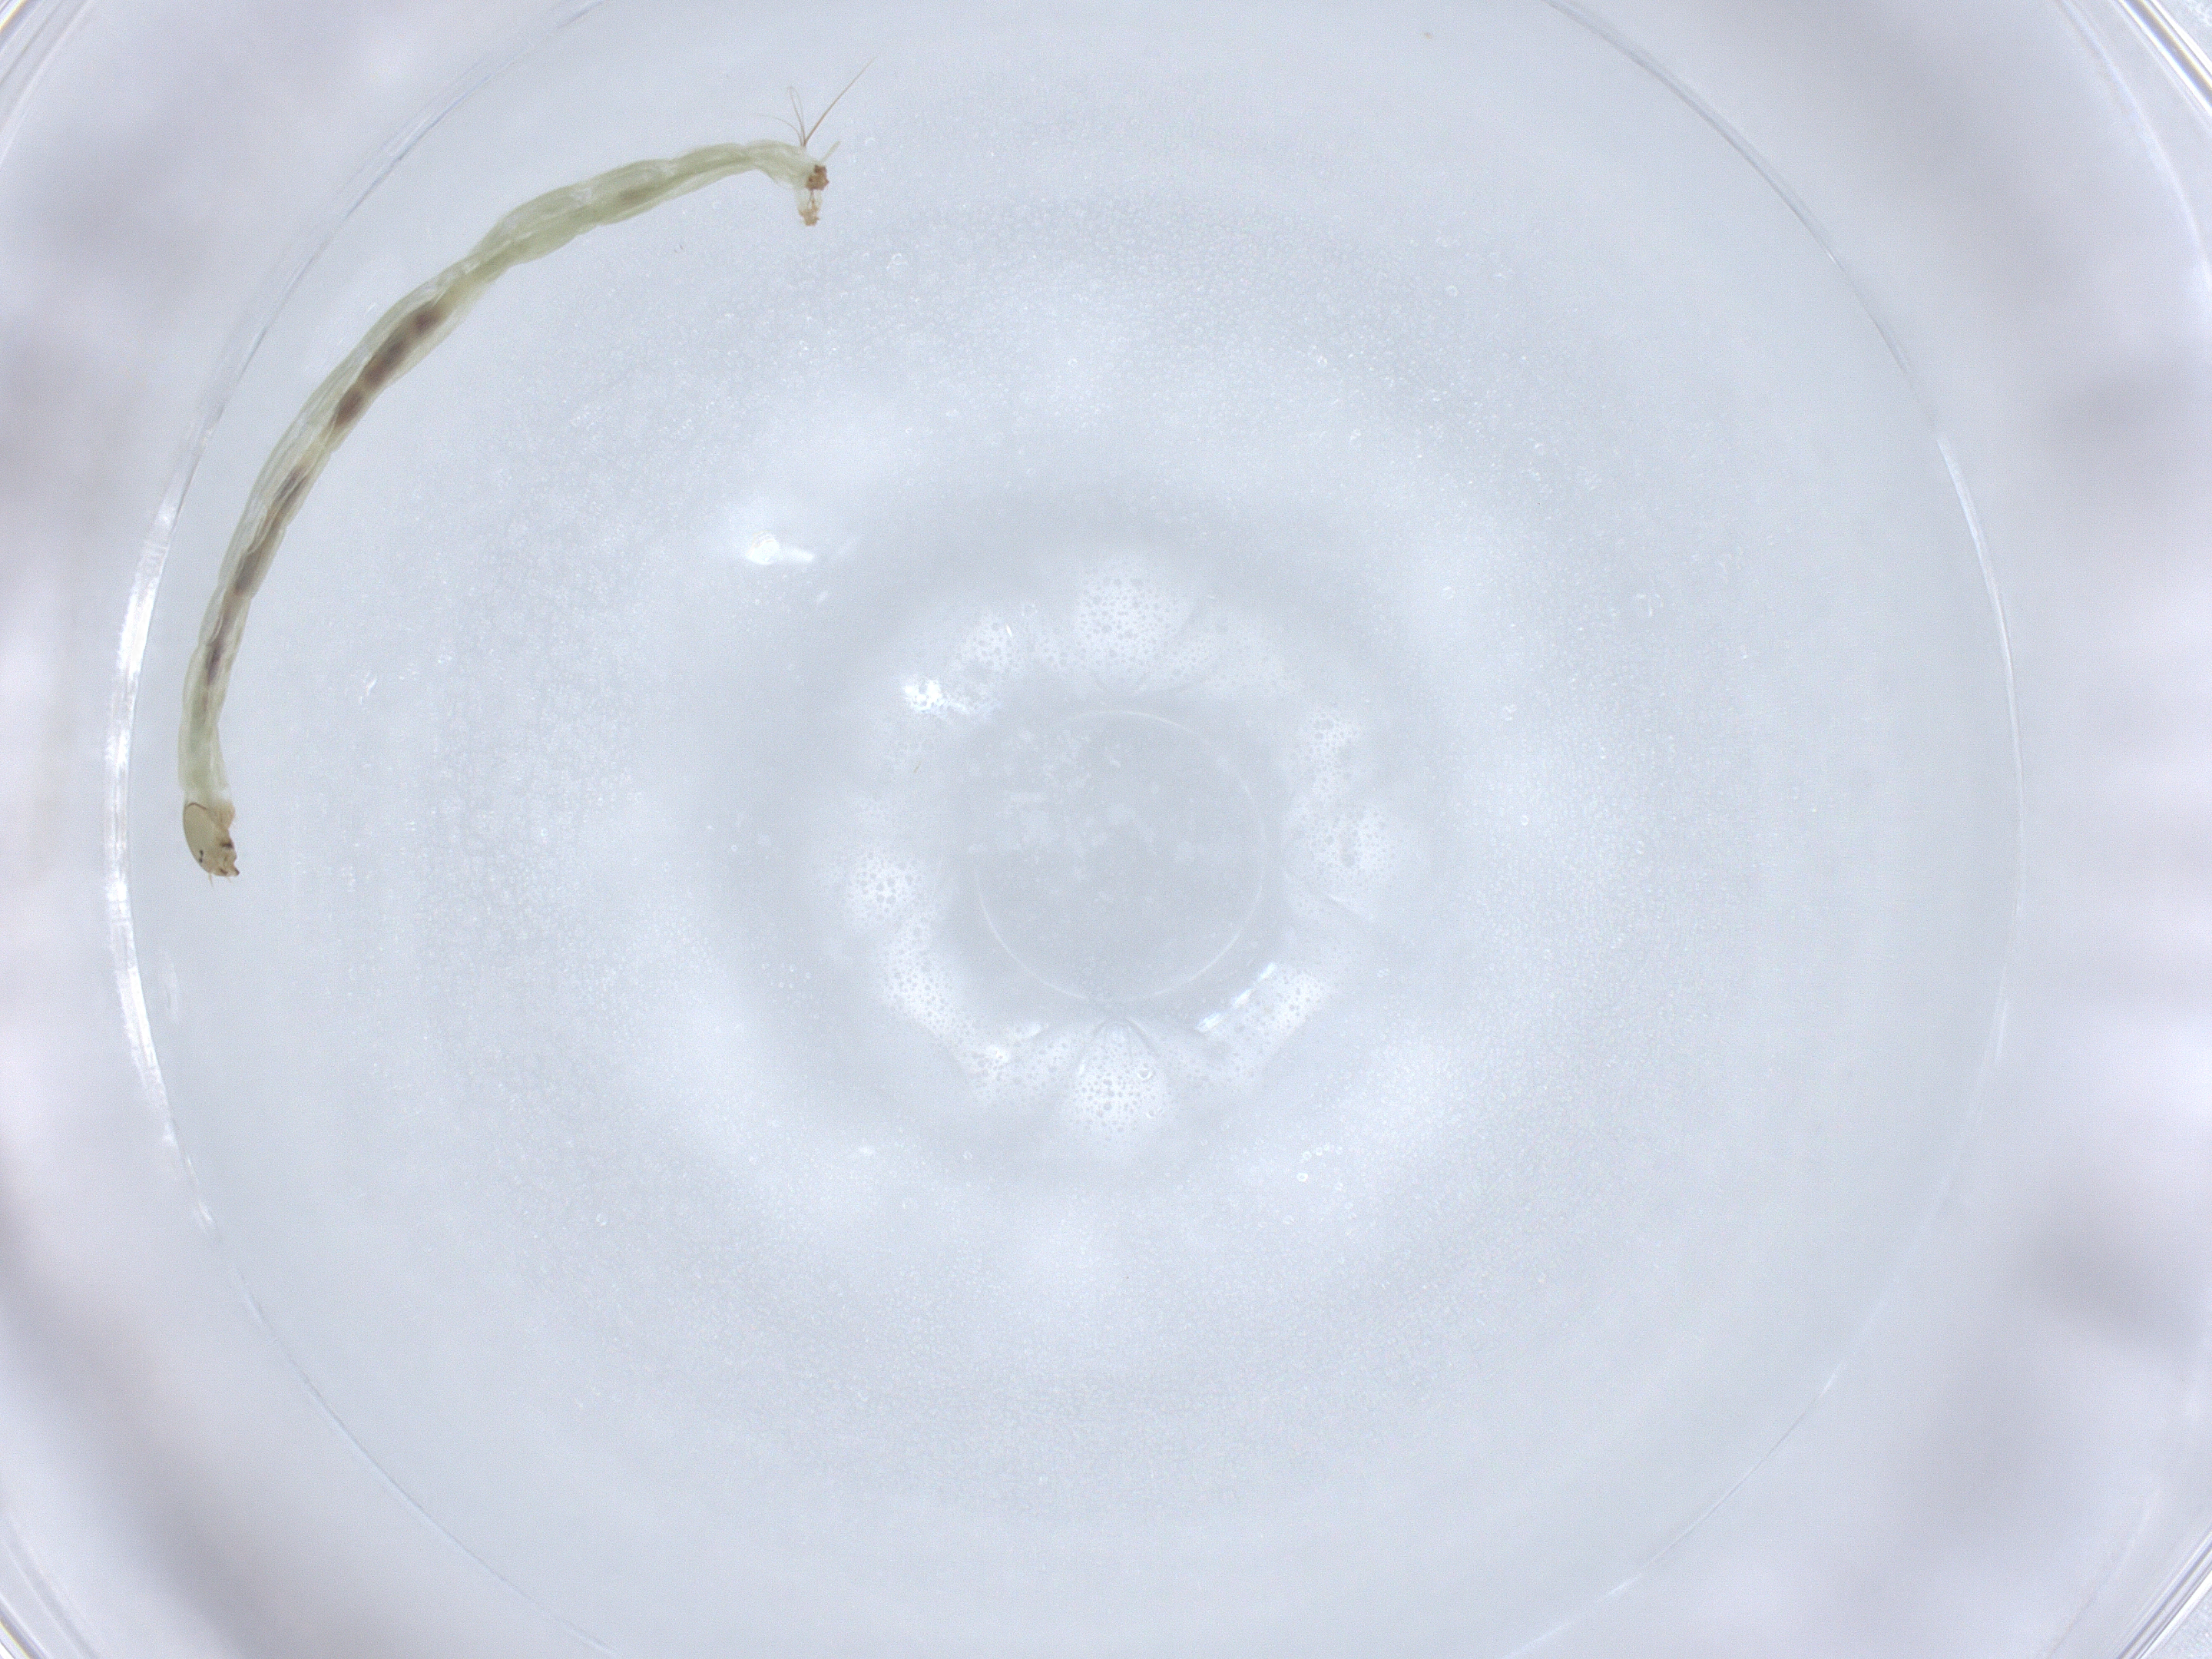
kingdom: Animalia
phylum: Arthropoda
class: Insecta
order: Diptera
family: Chironomidae
